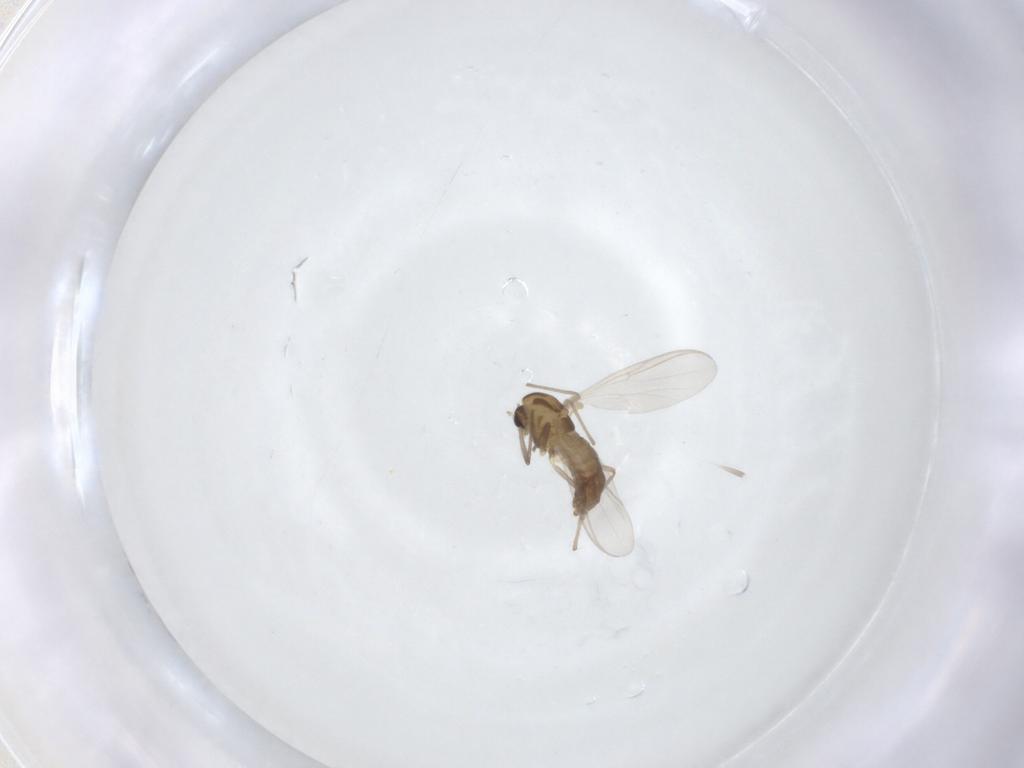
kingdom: Animalia
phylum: Arthropoda
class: Insecta
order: Diptera
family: Chironomidae
